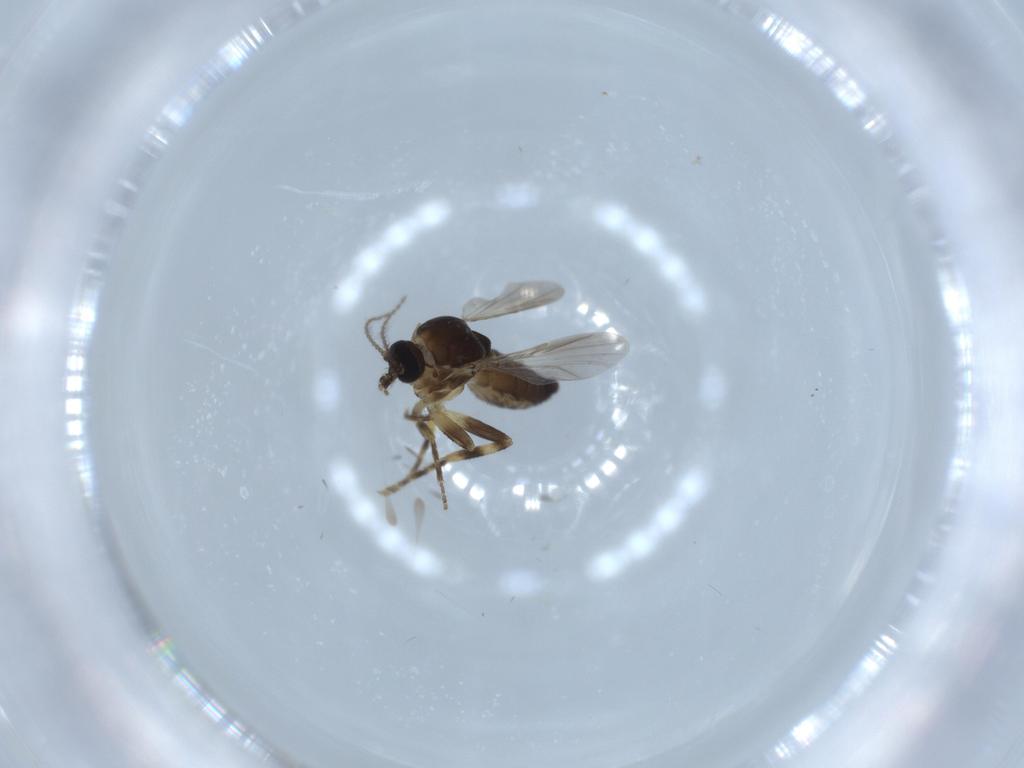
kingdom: Animalia
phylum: Arthropoda
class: Insecta
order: Diptera
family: Ceratopogonidae
